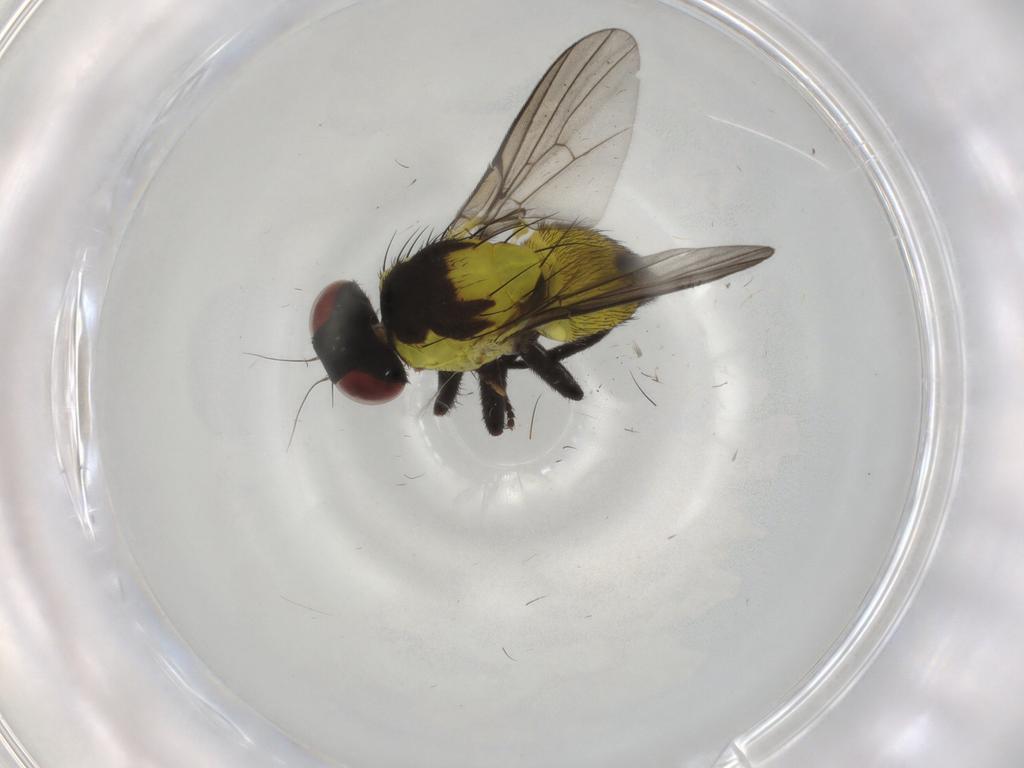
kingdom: Animalia
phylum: Arthropoda
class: Insecta
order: Diptera
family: Agromyzidae
